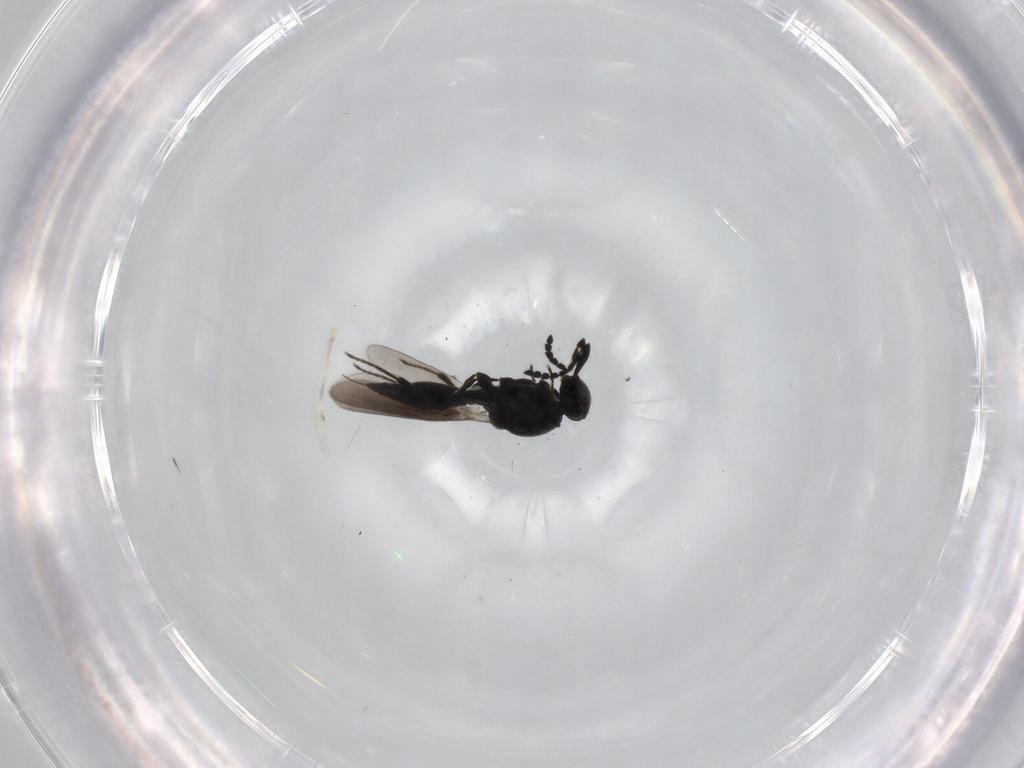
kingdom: Animalia
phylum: Arthropoda
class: Insecta
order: Hymenoptera
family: Platygastridae
